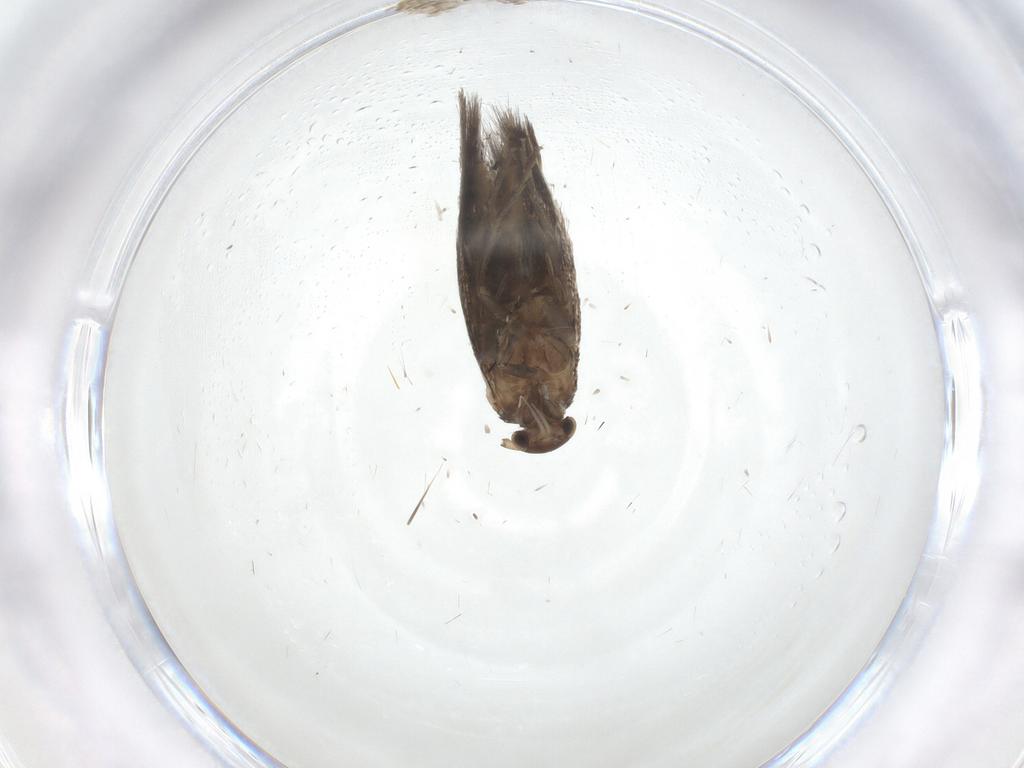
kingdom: Animalia
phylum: Arthropoda
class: Insecta
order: Lepidoptera
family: Elachistidae
